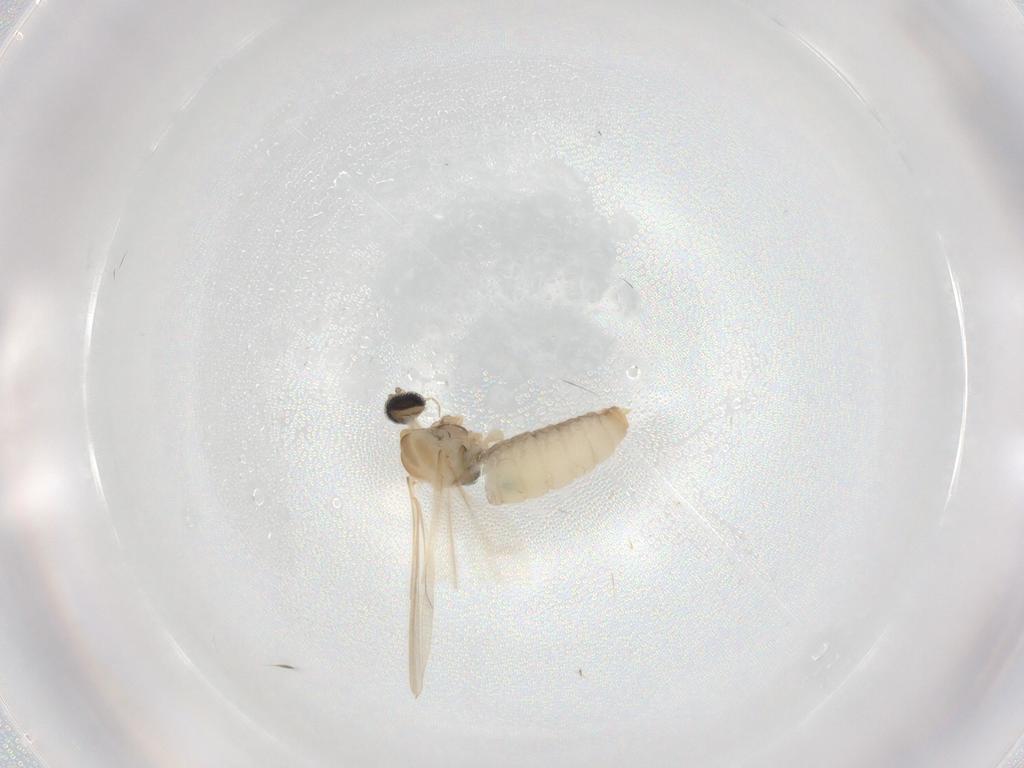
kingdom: Animalia
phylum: Arthropoda
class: Insecta
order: Diptera
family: Cecidomyiidae
